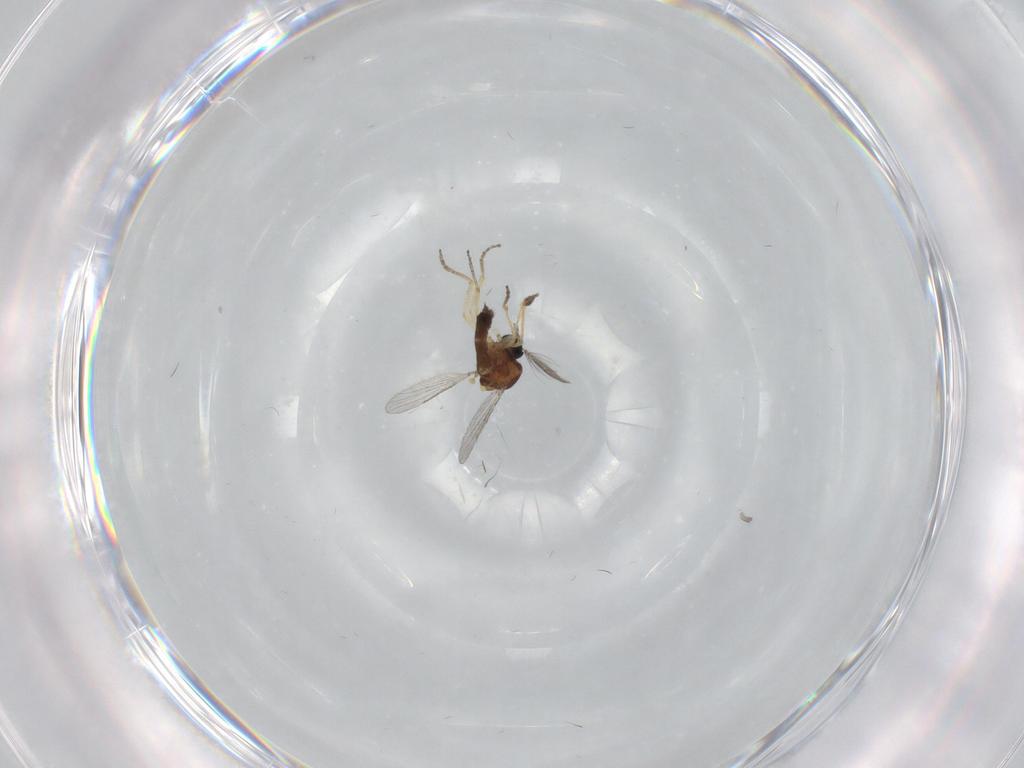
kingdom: Animalia
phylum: Arthropoda
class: Insecta
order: Diptera
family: Ceratopogonidae
